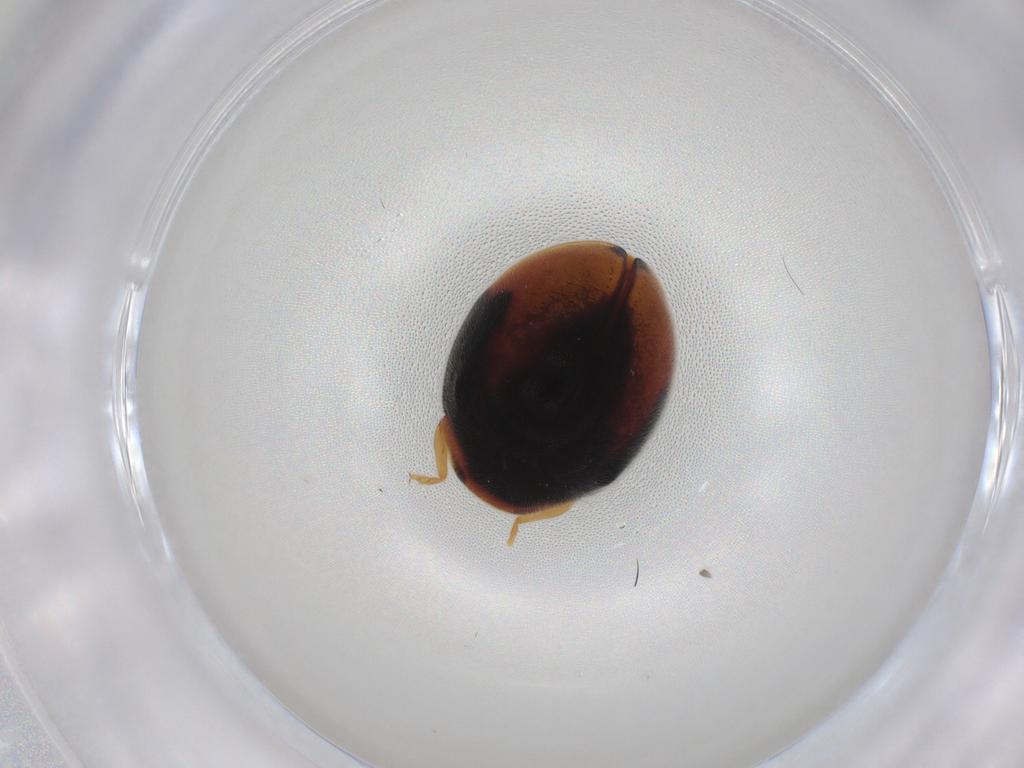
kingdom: Animalia
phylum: Arthropoda
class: Insecta
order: Coleoptera
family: Coccinellidae
